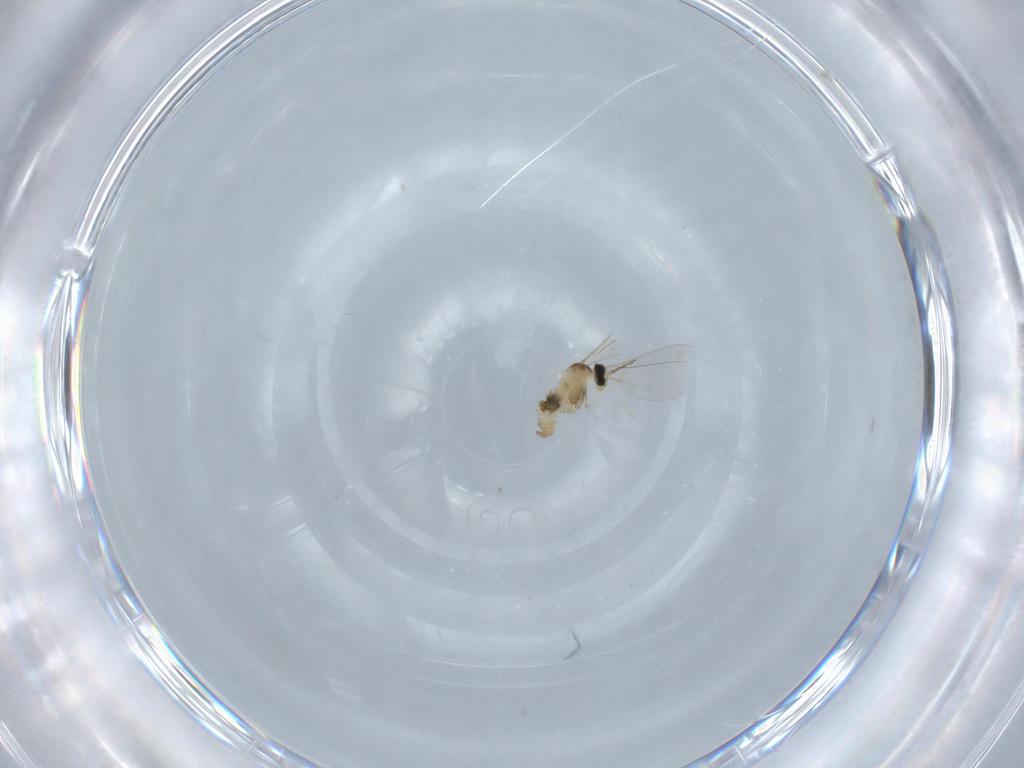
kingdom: Animalia
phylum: Arthropoda
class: Insecta
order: Diptera
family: Cecidomyiidae
